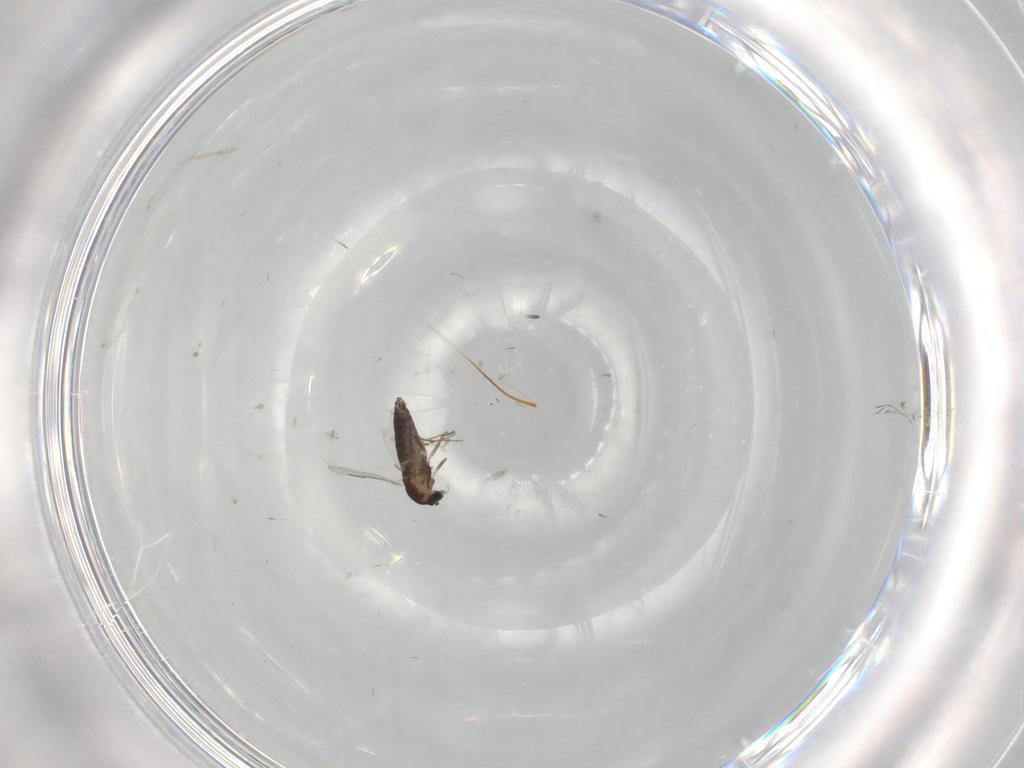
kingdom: Animalia
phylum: Arthropoda
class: Insecta
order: Diptera
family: Chironomidae
